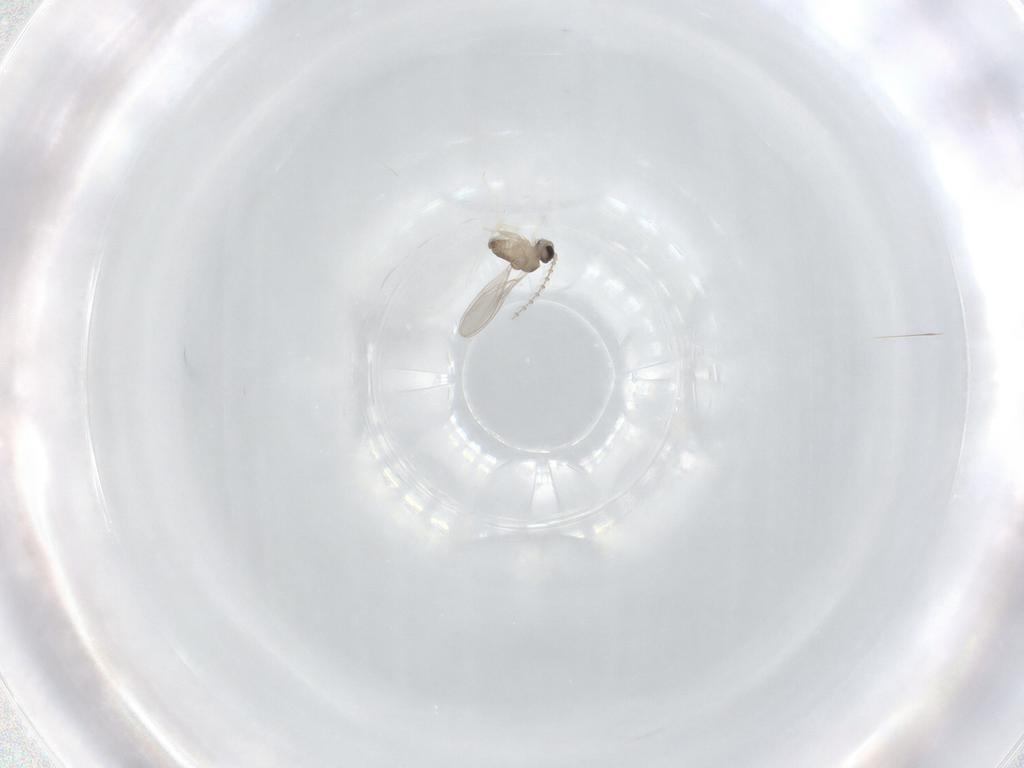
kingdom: Animalia
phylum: Arthropoda
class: Insecta
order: Diptera
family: Cecidomyiidae
